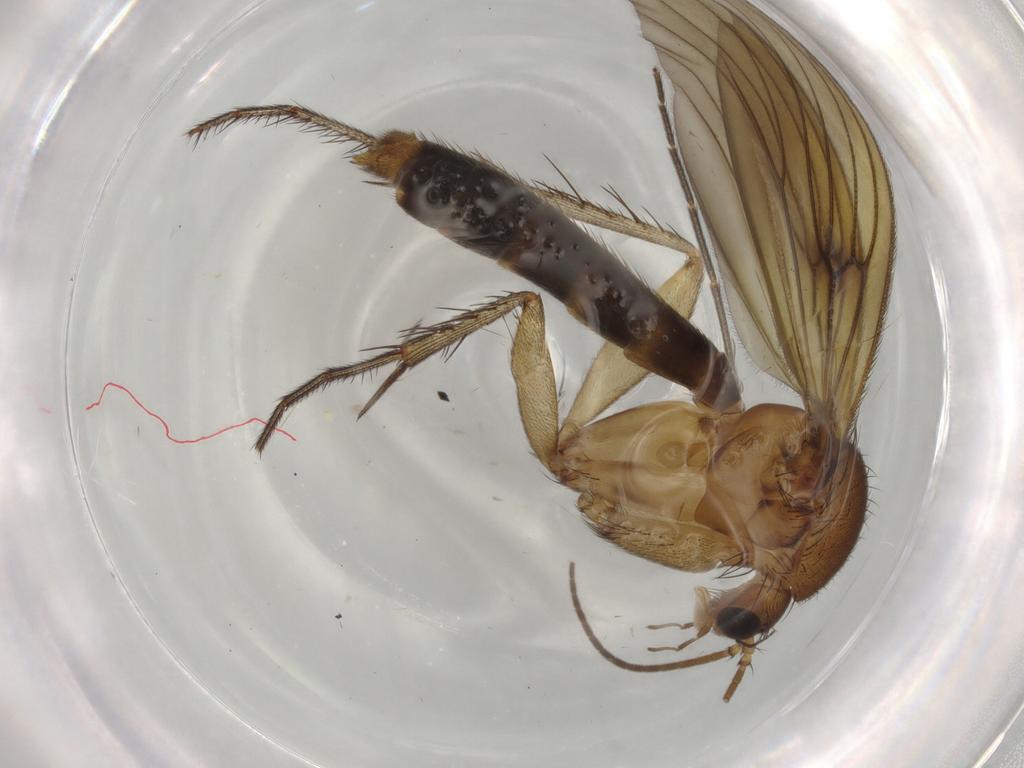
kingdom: Animalia
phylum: Arthropoda
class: Insecta
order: Diptera
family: Mycetophilidae
